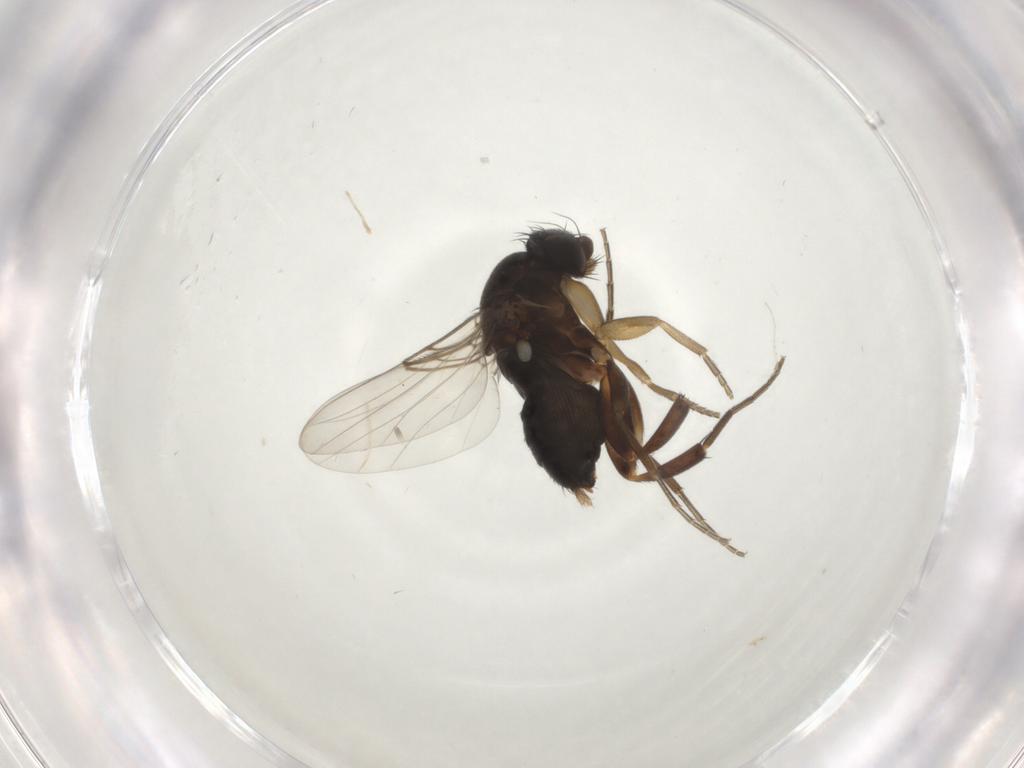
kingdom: Animalia
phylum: Arthropoda
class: Insecta
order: Diptera
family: Phoridae
